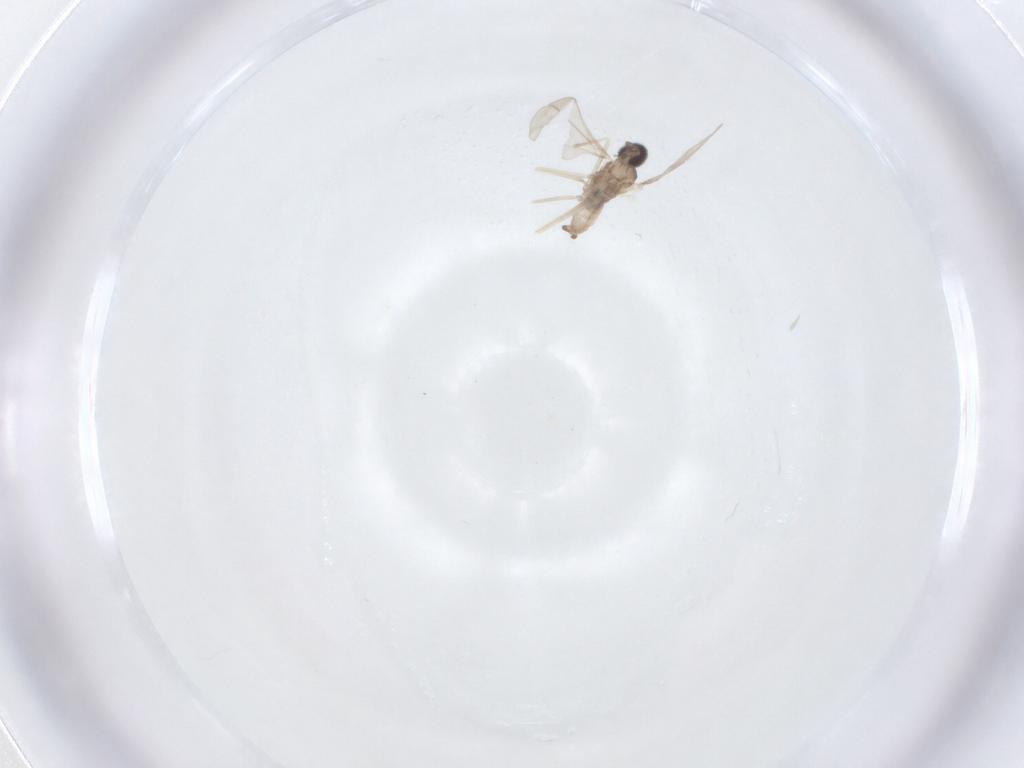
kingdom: Animalia
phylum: Arthropoda
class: Insecta
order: Diptera
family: Cecidomyiidae
